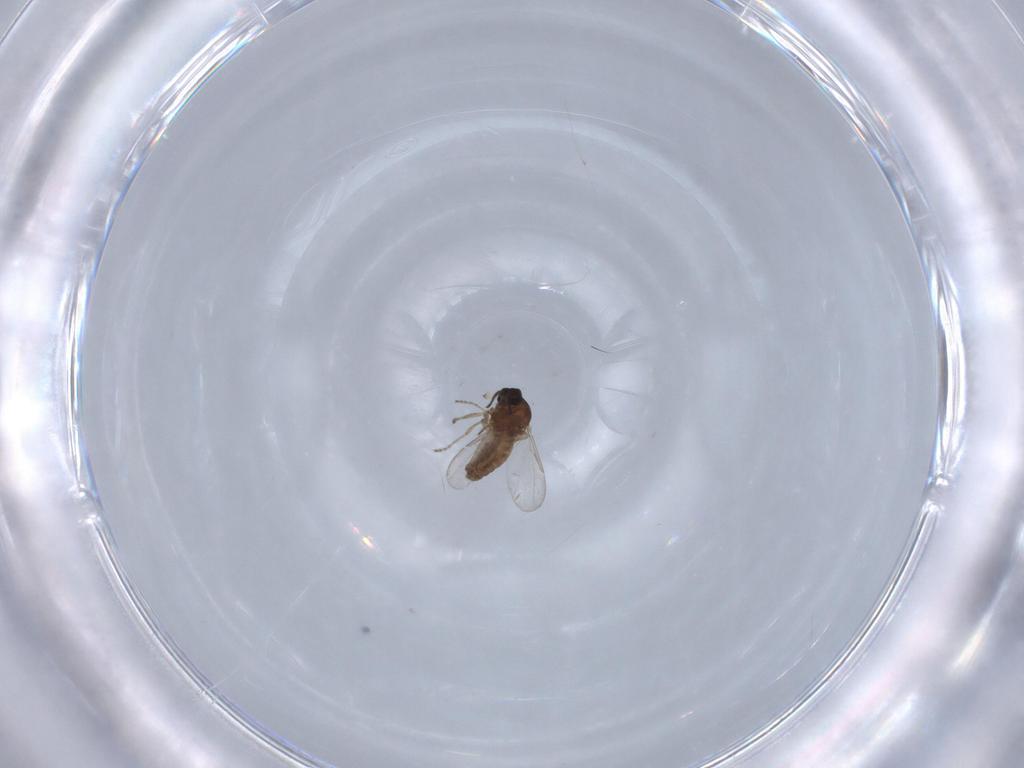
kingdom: Animalia
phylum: Arthropoda
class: Insecta
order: Diptera
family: Ceratopogonidae
